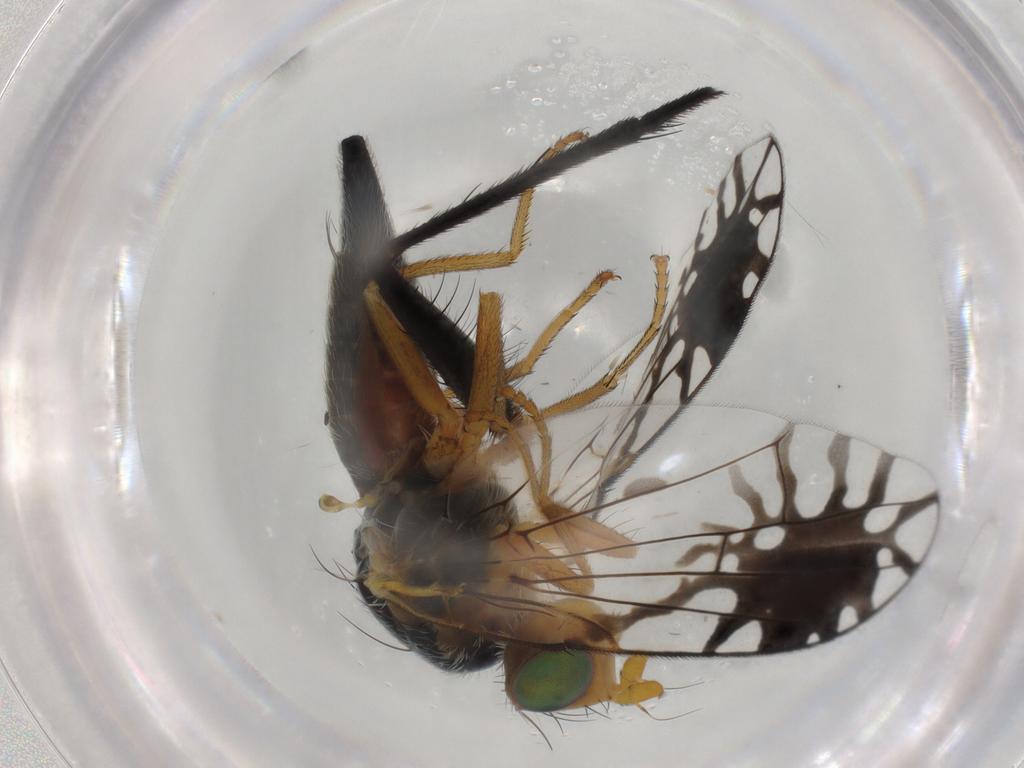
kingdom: Animalia
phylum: Arthropoda
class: Insecta
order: Diptera
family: Tephritidae
